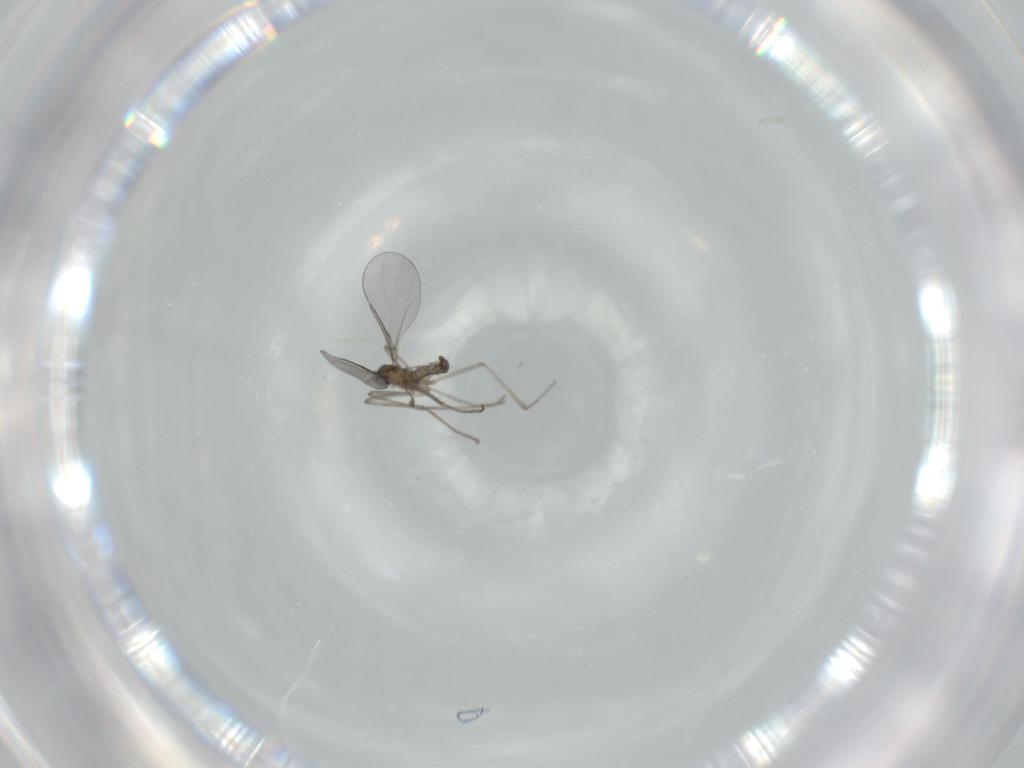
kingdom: Animalia
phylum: Arthropoda
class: Insecta
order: Diptera
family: Cecidomyiidae
